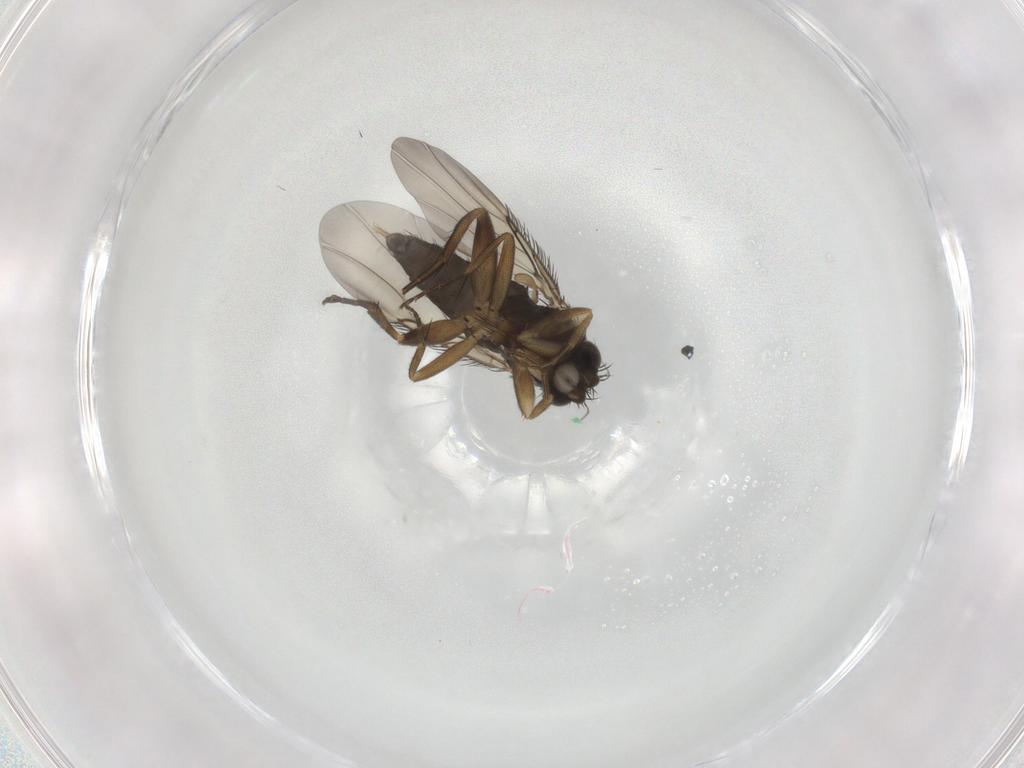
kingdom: Animalia
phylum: Arthropoda
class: Insecta
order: Diptera
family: Phoridae
